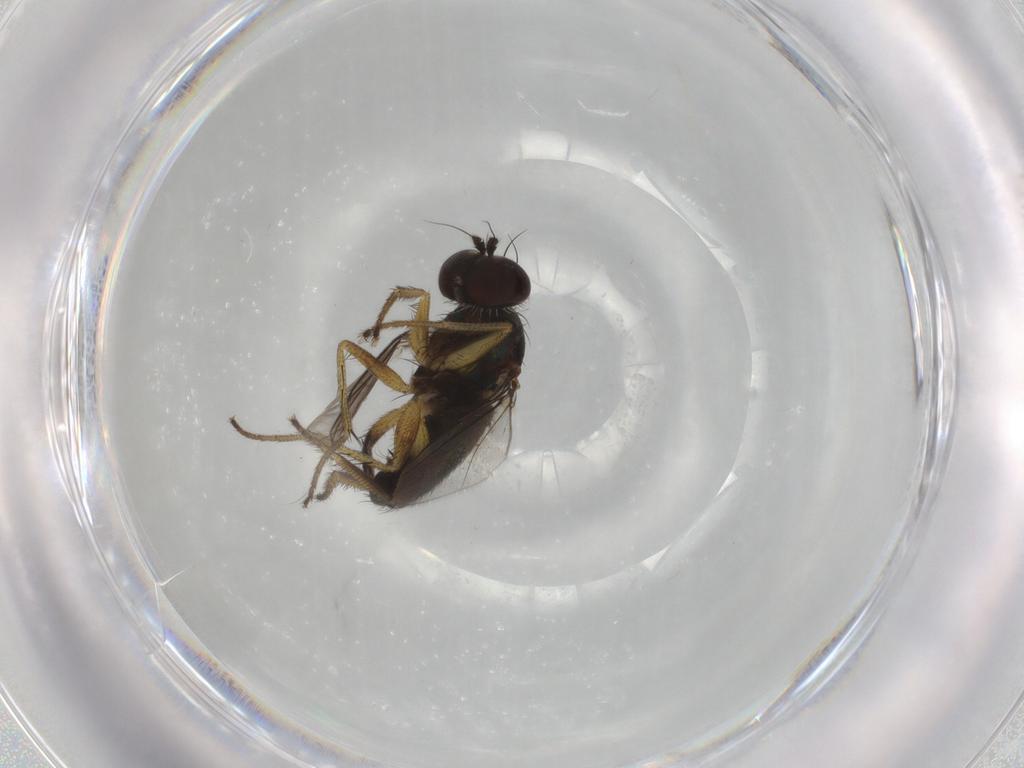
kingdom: Animalia
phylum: Arthropoda
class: Insecta
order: Diptera
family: Dolichopodidae
